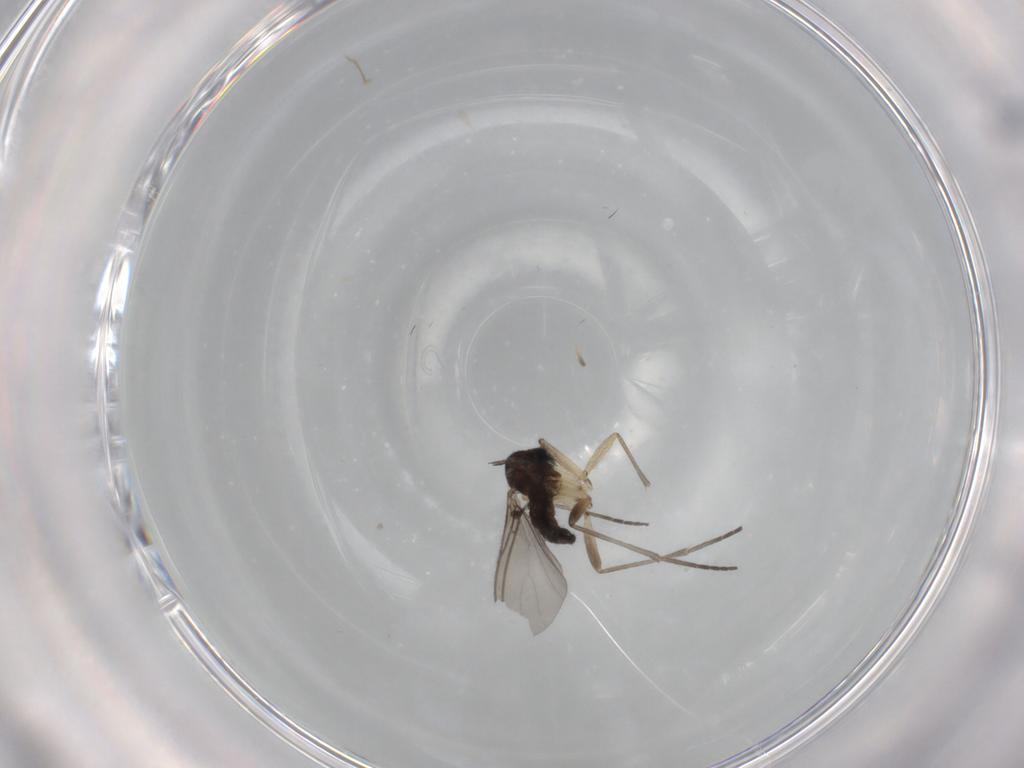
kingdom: Animalia
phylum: Arthropoda
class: Insecta
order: Diptera
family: Sciaridae
